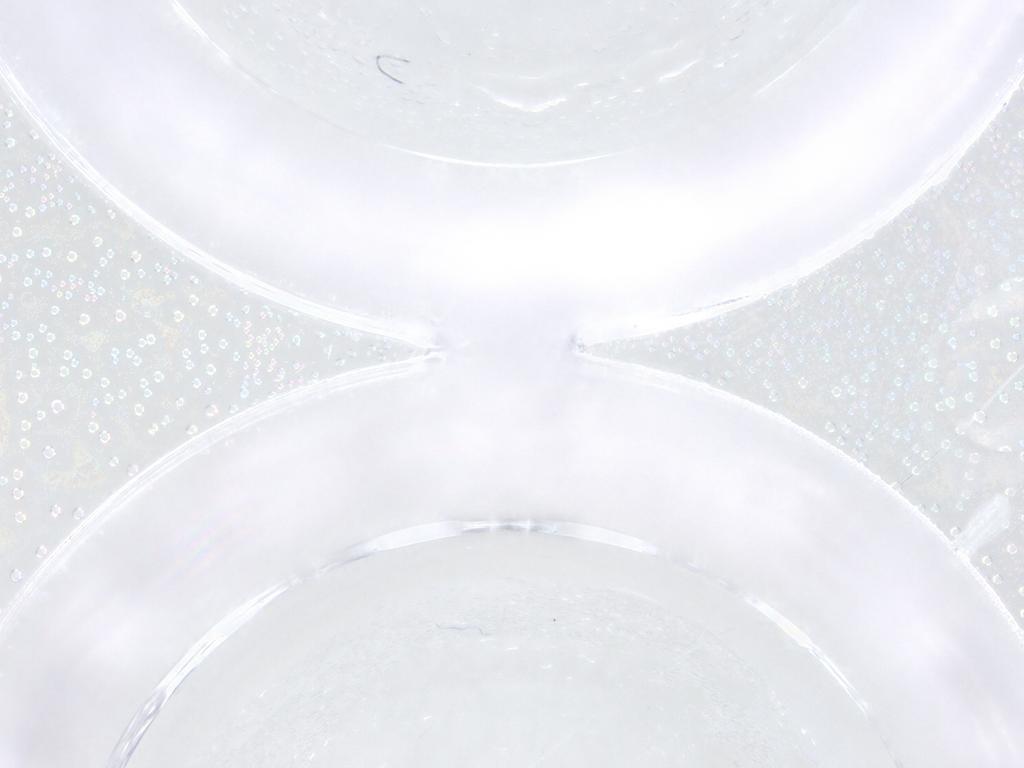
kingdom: Animalia
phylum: Arthropoda
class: Insecta
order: Diptera
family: Ceratopogonidae
